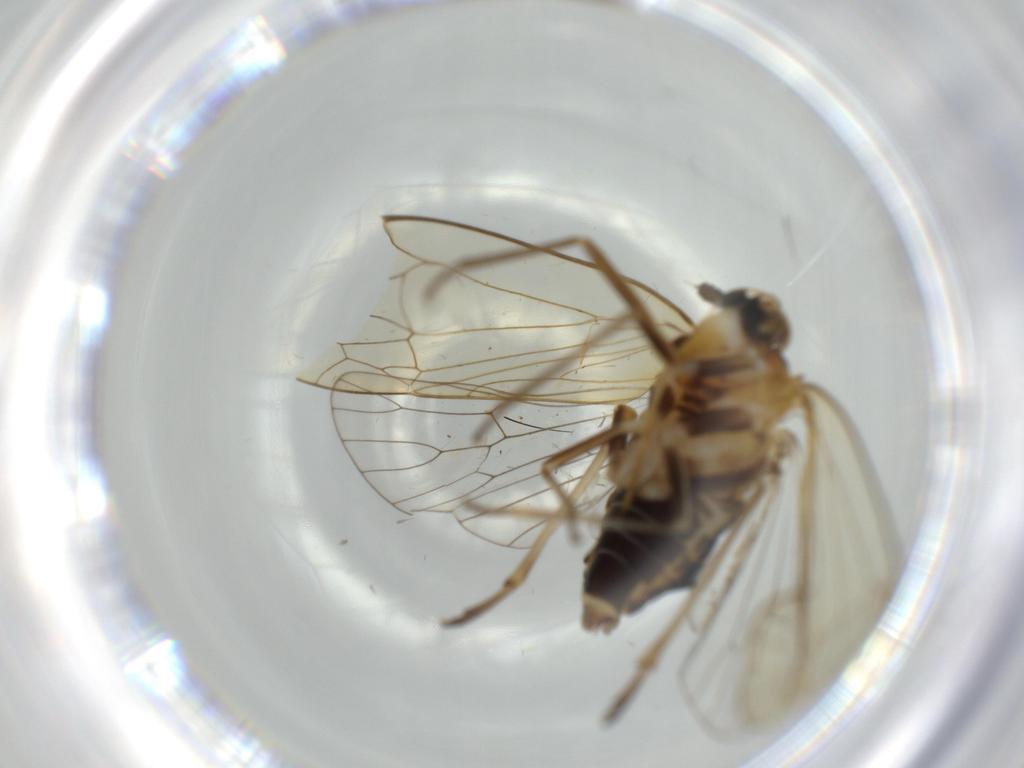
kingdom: Animalia
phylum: Arthropoda
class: Insecta
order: Hemiptera
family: Kinnaridae
